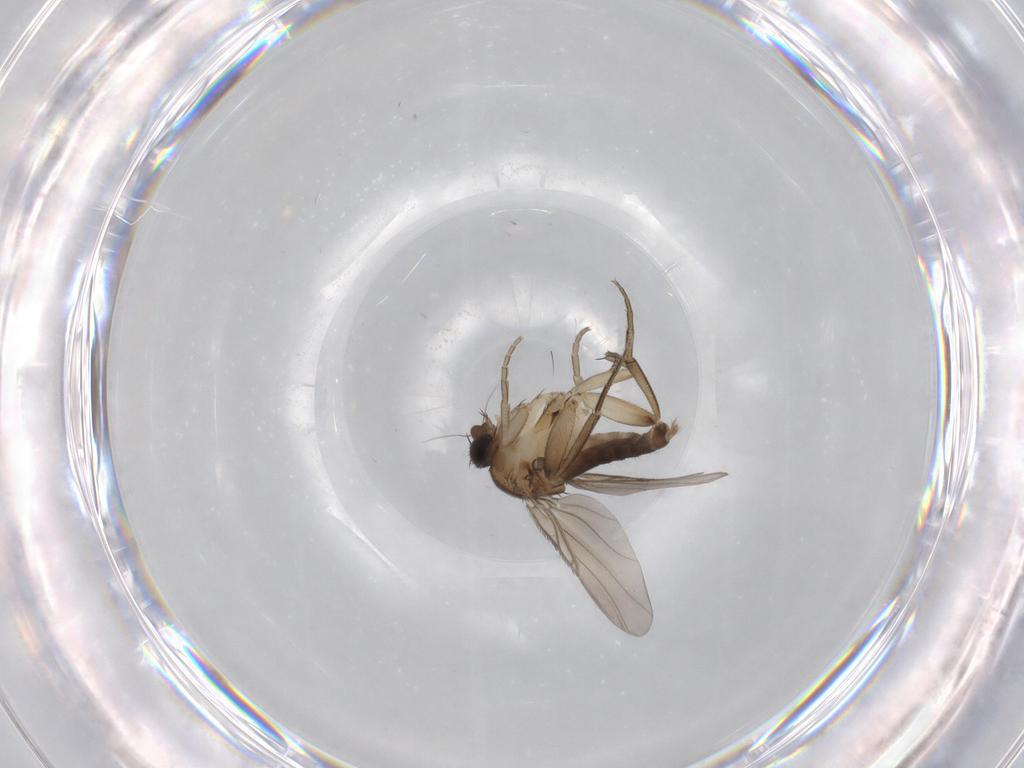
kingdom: Animalia
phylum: Arthropoda
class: Insecta
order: Diptera
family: Phoridae
